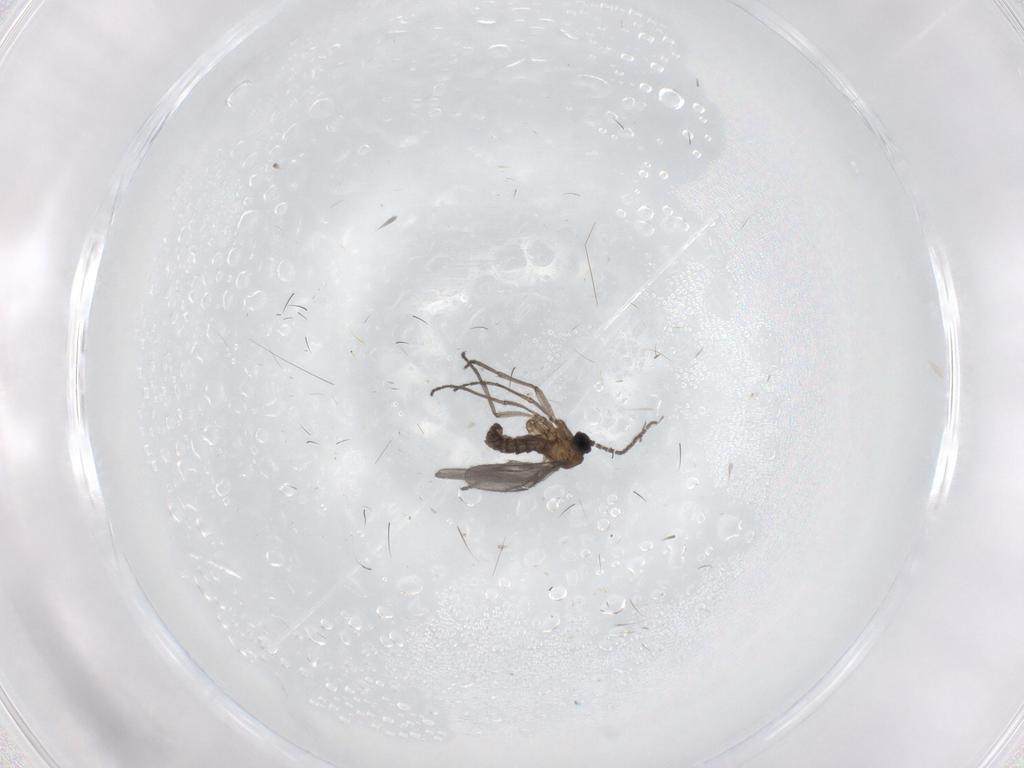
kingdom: Animalia
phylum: Arthropoda
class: Insecta
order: Diptera
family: Sciaridae
